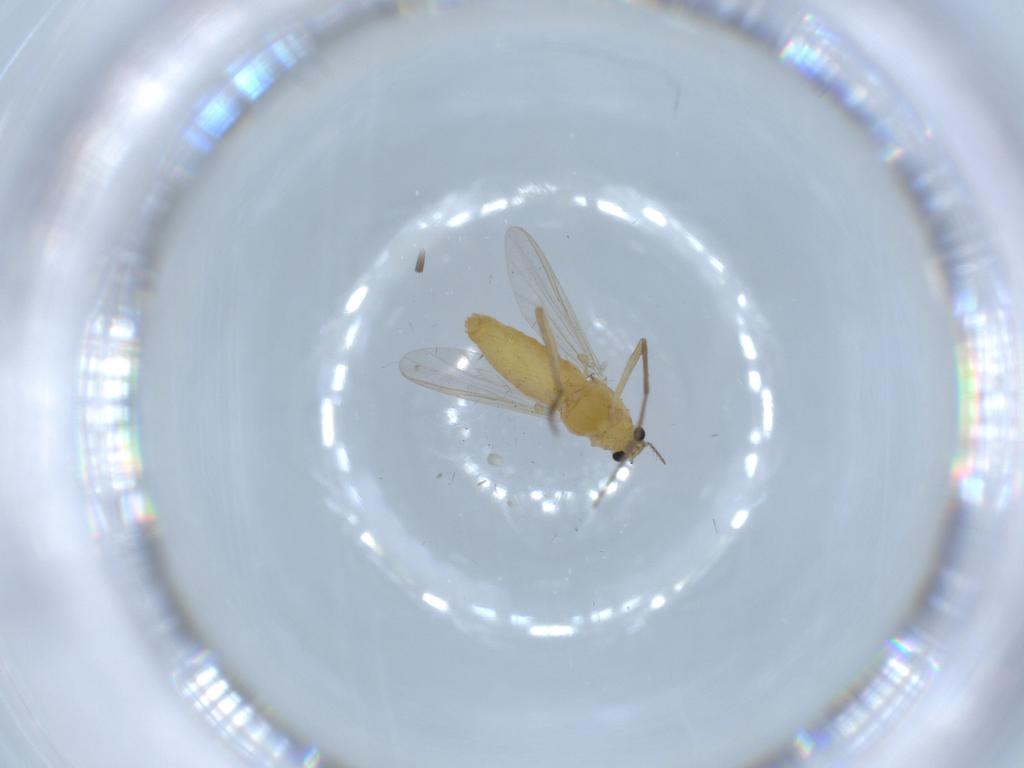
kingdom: Animalia
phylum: Arthropoda
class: Insecta
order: Diptera
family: Chironomidae
